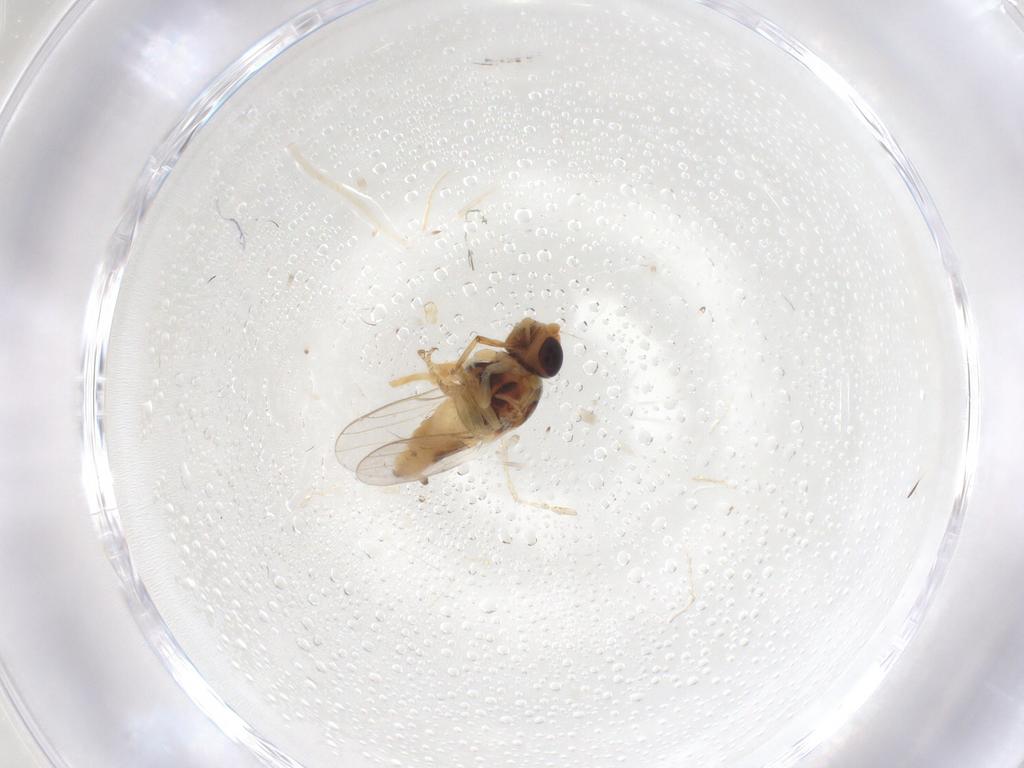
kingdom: Animalia
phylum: Arthropoda
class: Insecta
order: Diptera
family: Chloropidae
